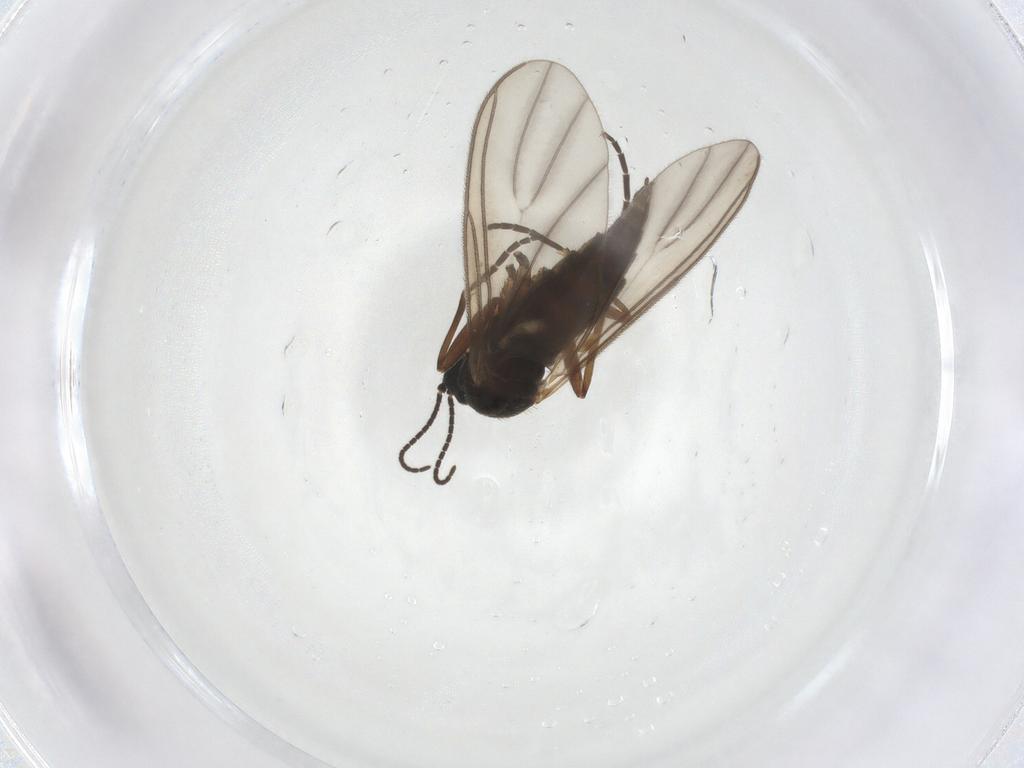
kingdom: Animalia
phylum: Arthropoda
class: Insecta
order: Diptera
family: Sciaridae
